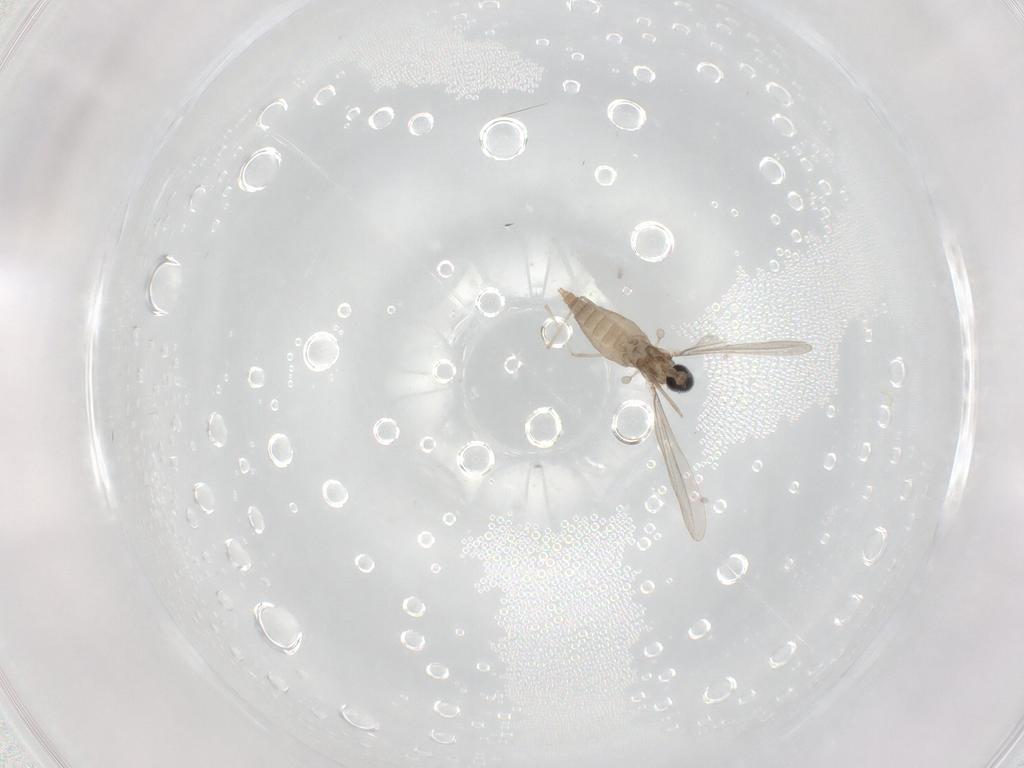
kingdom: Animalia
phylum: Arthropoda
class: Insecta
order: Diptera
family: Cecidomyiidae
